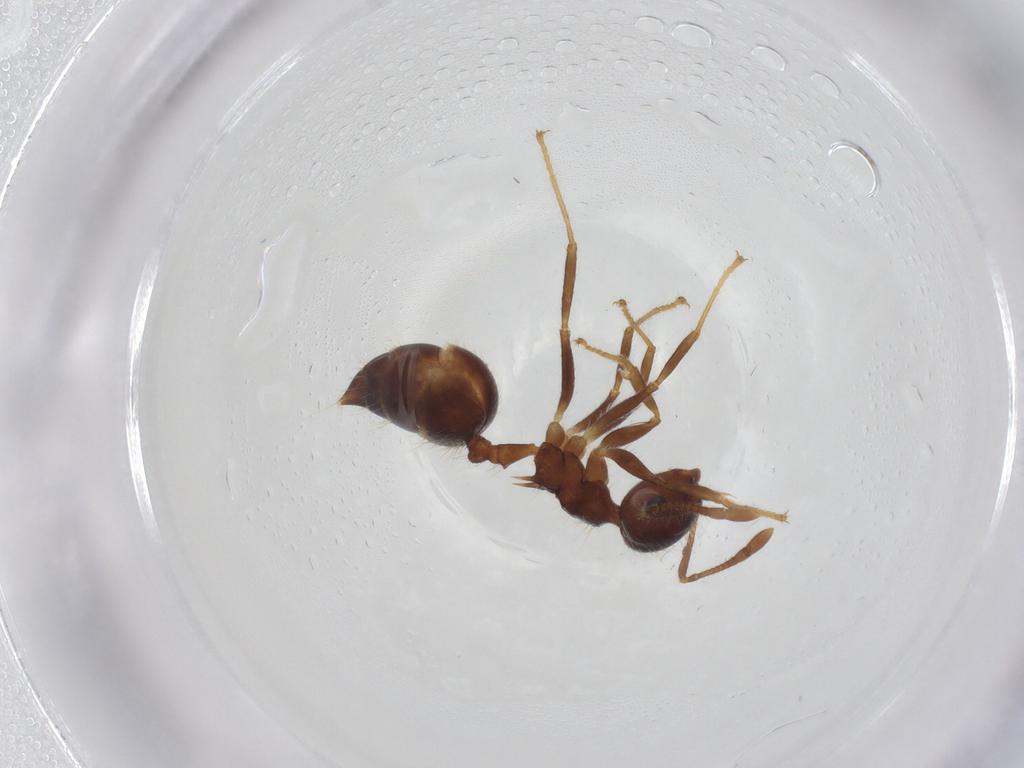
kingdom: Animalia
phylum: Arthropoda
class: Insecta
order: Hymenoptera
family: Formicidae
